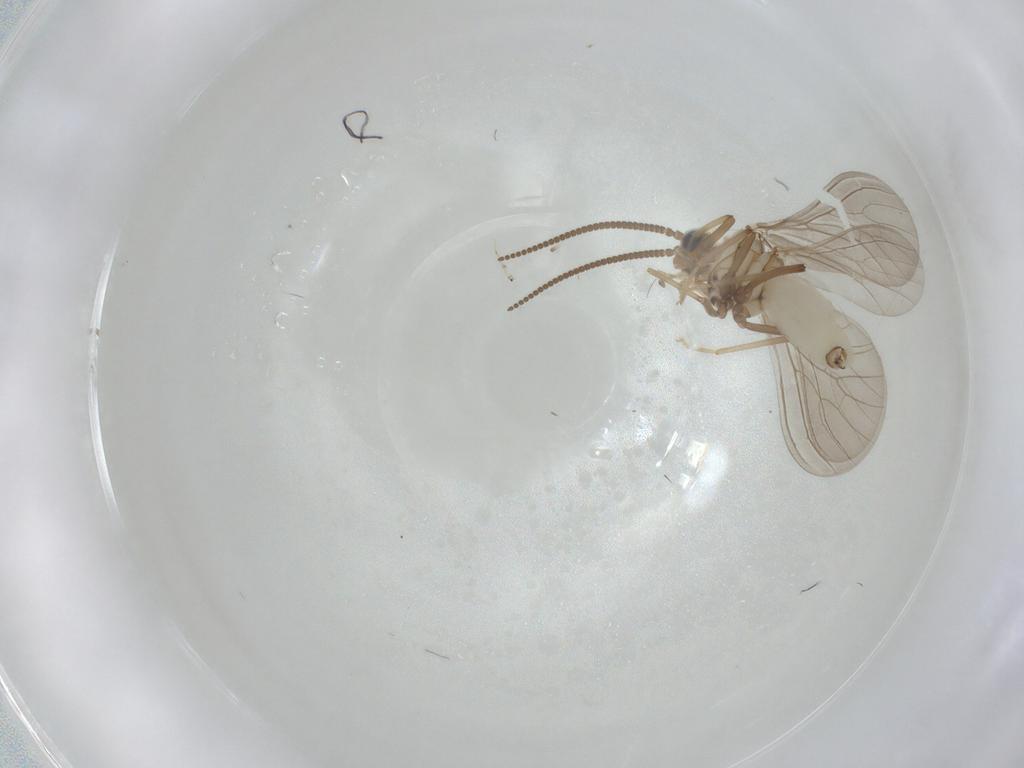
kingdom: Animalia
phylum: Arthropoda
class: Insecta
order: Neuroptera
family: Coniopterygidae
